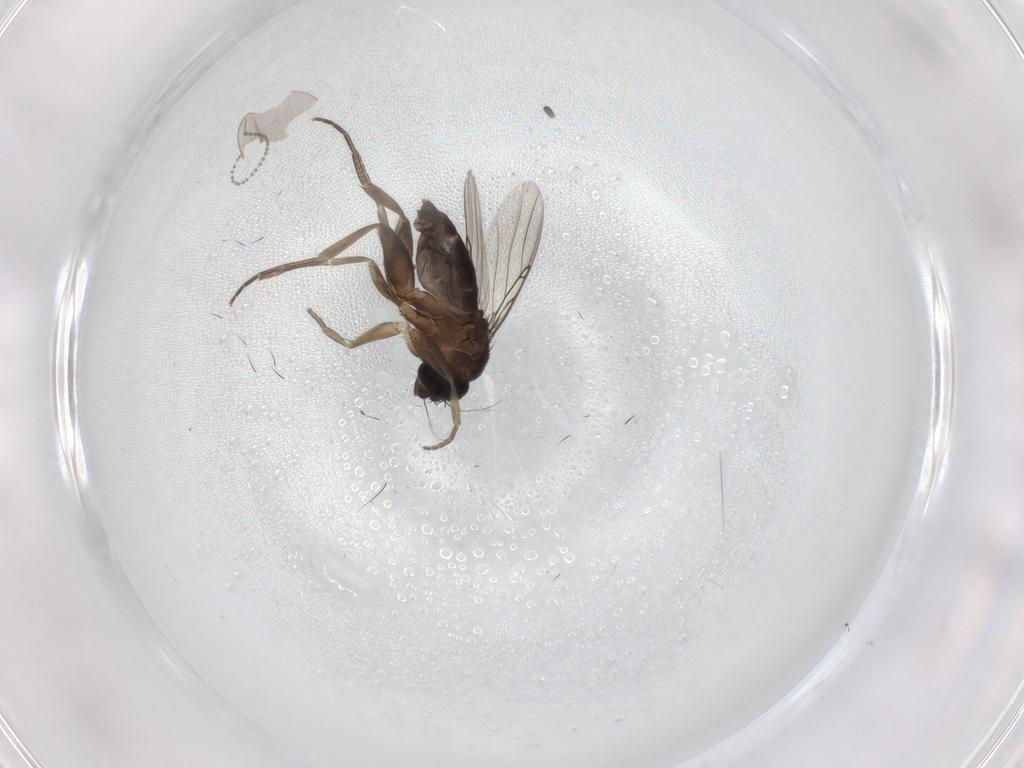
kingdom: Animalia
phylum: Arthropoda
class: Insecta
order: Diptera
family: Phoridae
